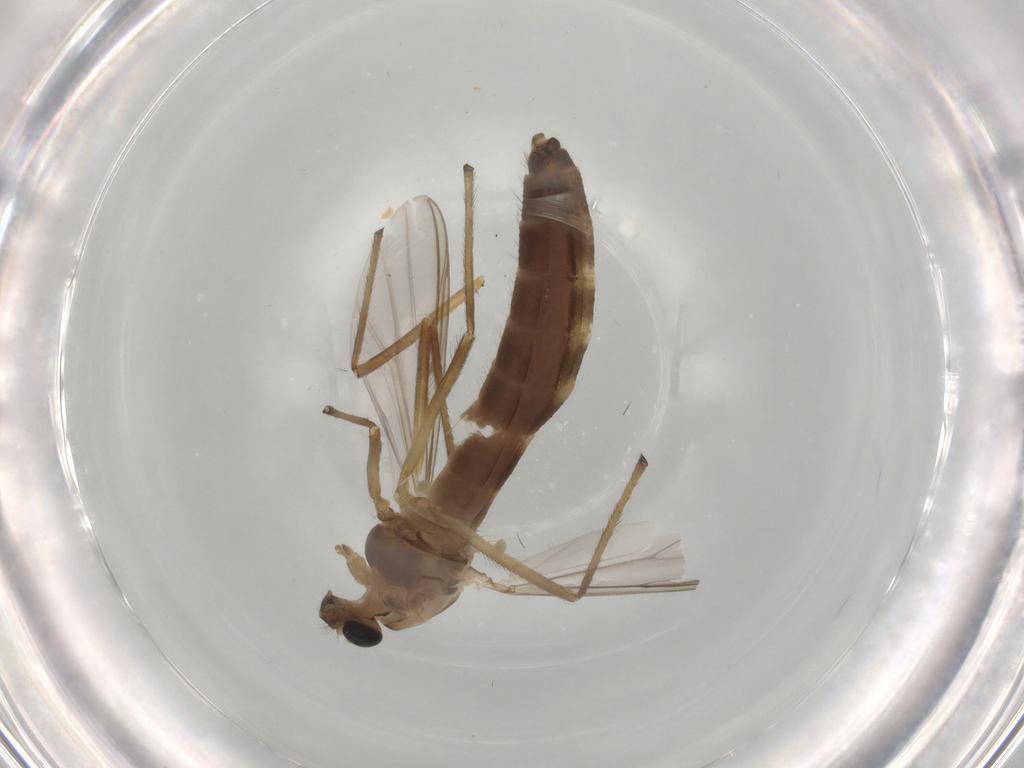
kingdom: Animalia
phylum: Arthropoda
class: Insecta
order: Diptera
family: Chironomidae
